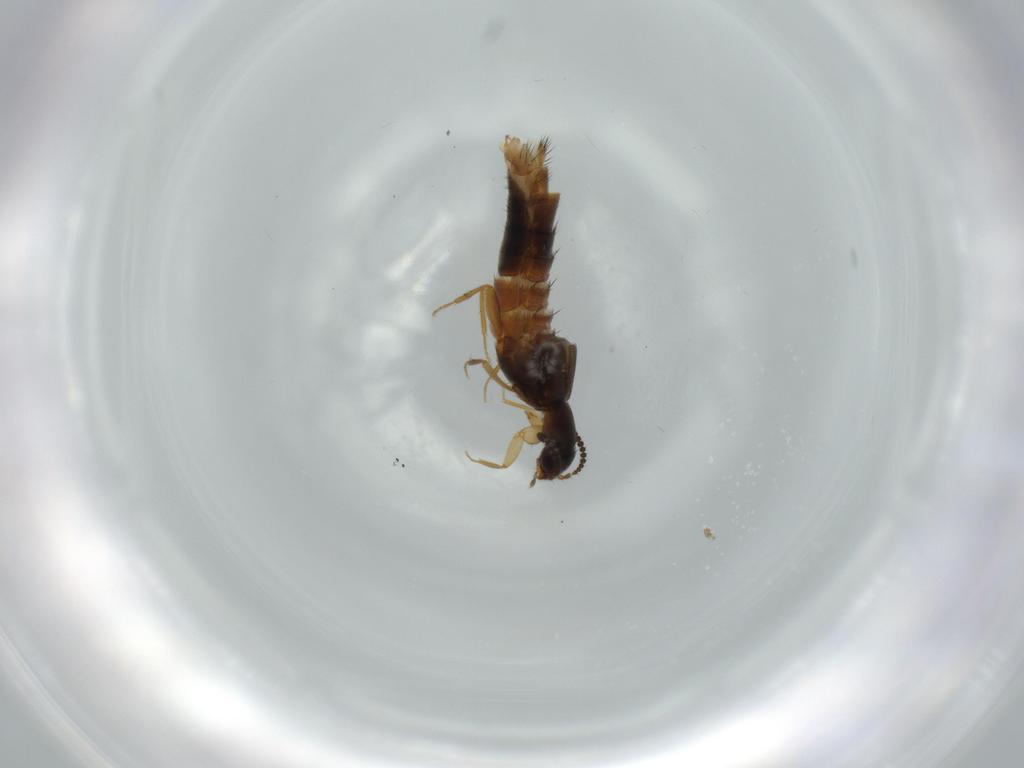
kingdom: Animalia
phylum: Arthropoda
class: Insecta
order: Coleoptera
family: Staphylinidae
